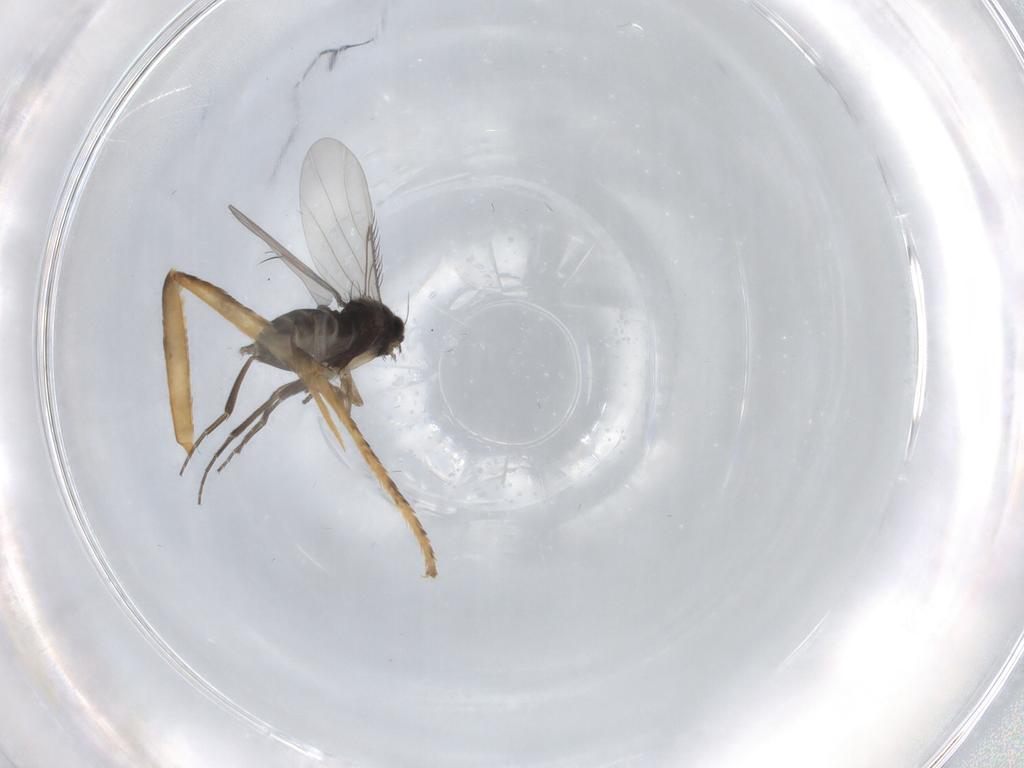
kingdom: Animalia
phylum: Arthropoda
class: Insecta
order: Diptera
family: Phoridae
